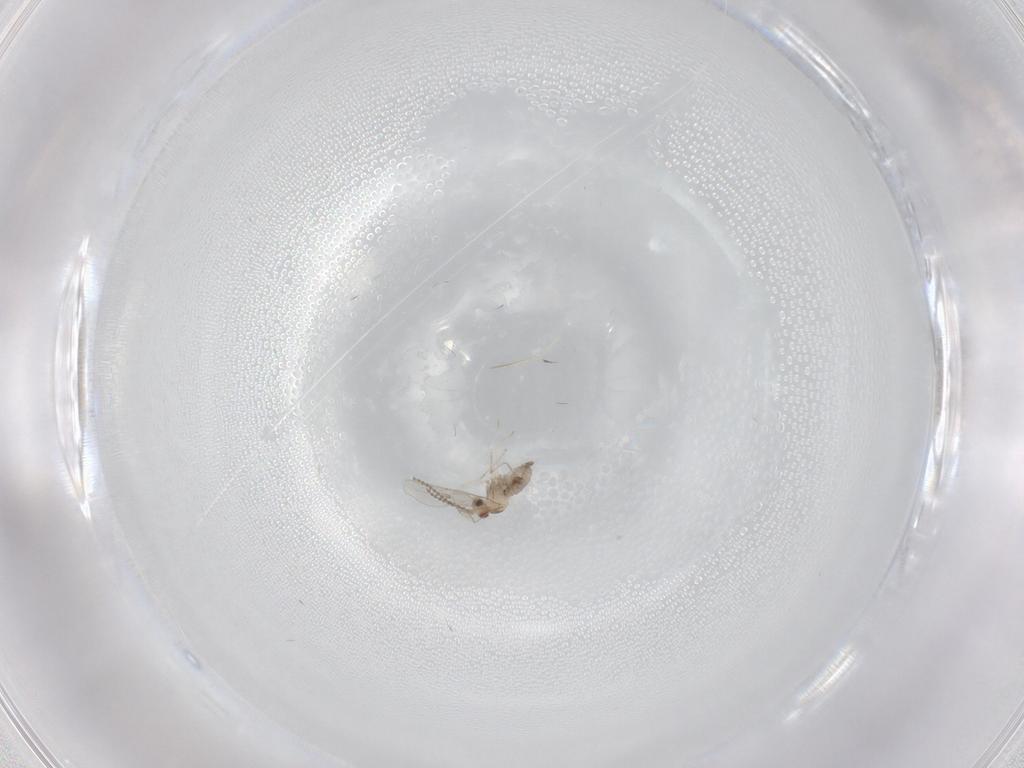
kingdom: Animalia
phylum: Arthropoda
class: Insecta
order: Diptera
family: Cecidomyiidae
